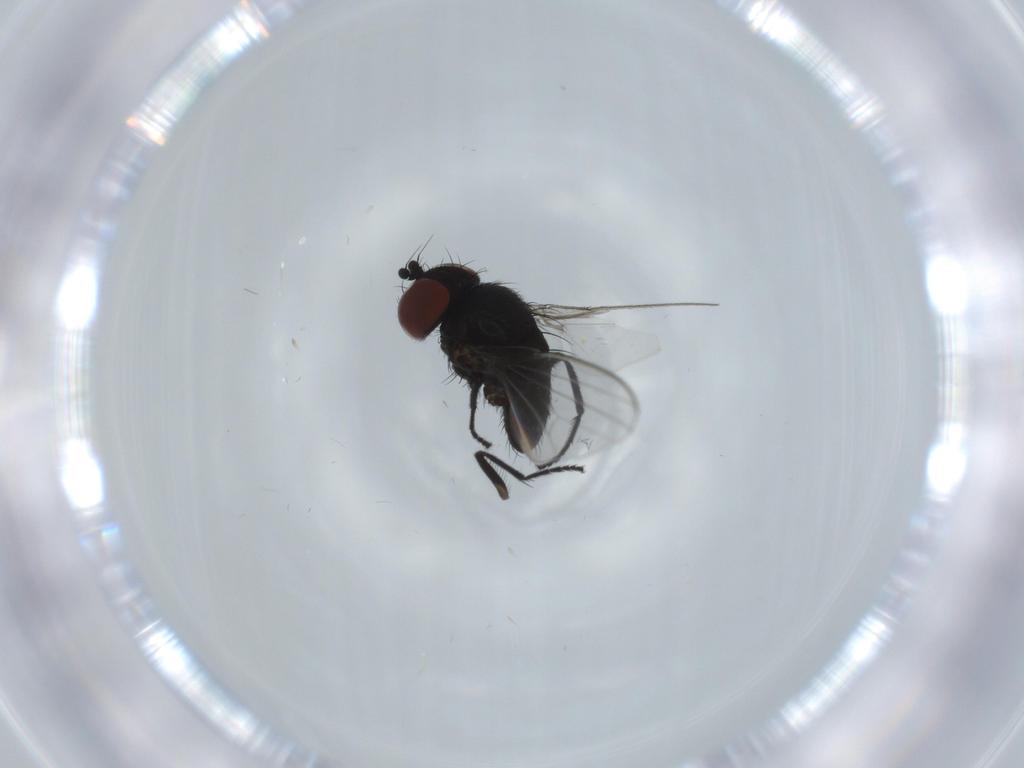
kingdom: Animalia
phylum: Arthropoda
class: Insecta
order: Diptera
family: Milichiidae
